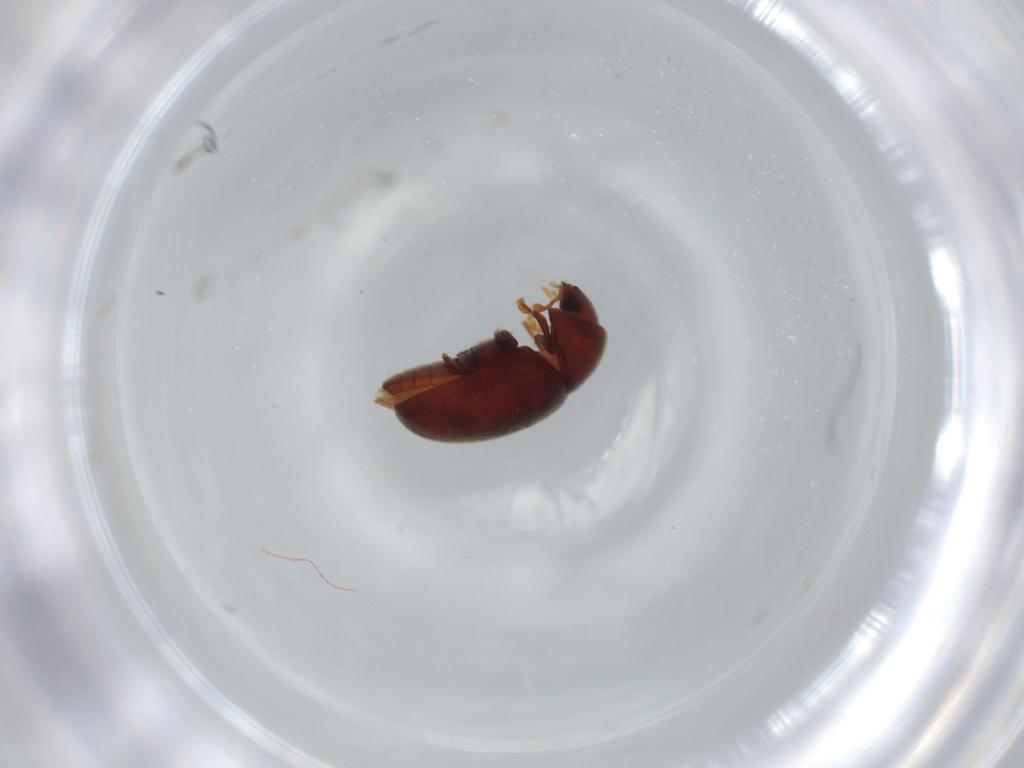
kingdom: Animalia
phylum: Arthropoda
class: Insecta
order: Coleoptera
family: Ptinidae
